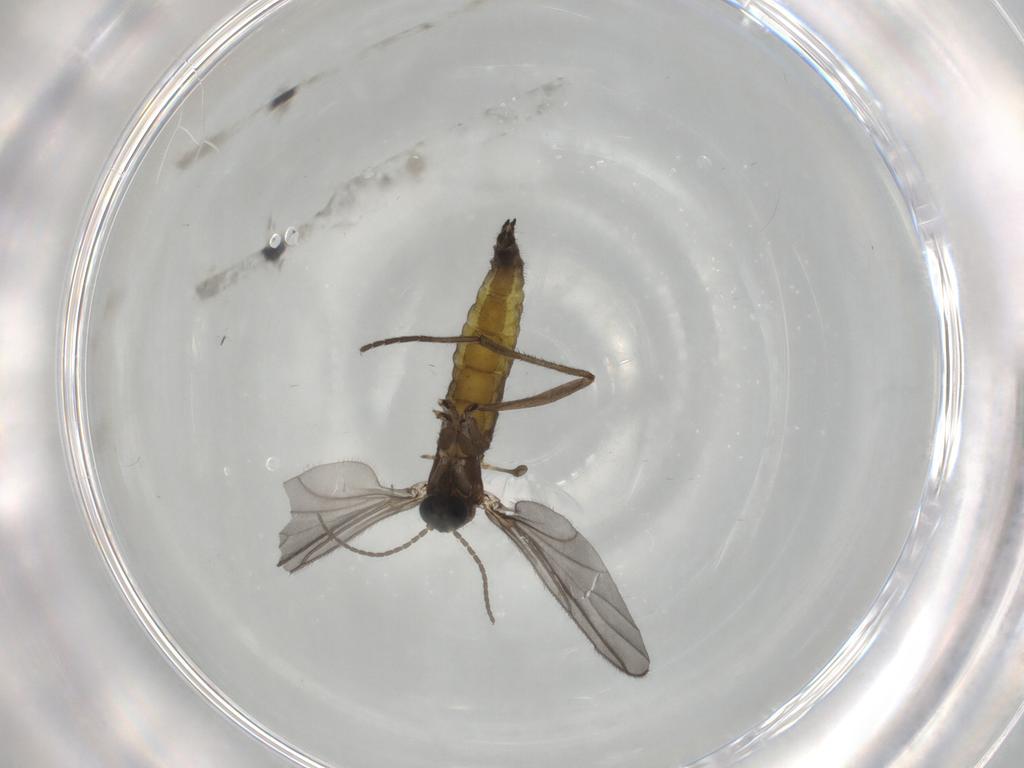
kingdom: Animalia
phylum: Arthropoda
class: Insecta
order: Diptera
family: Sciaridae
